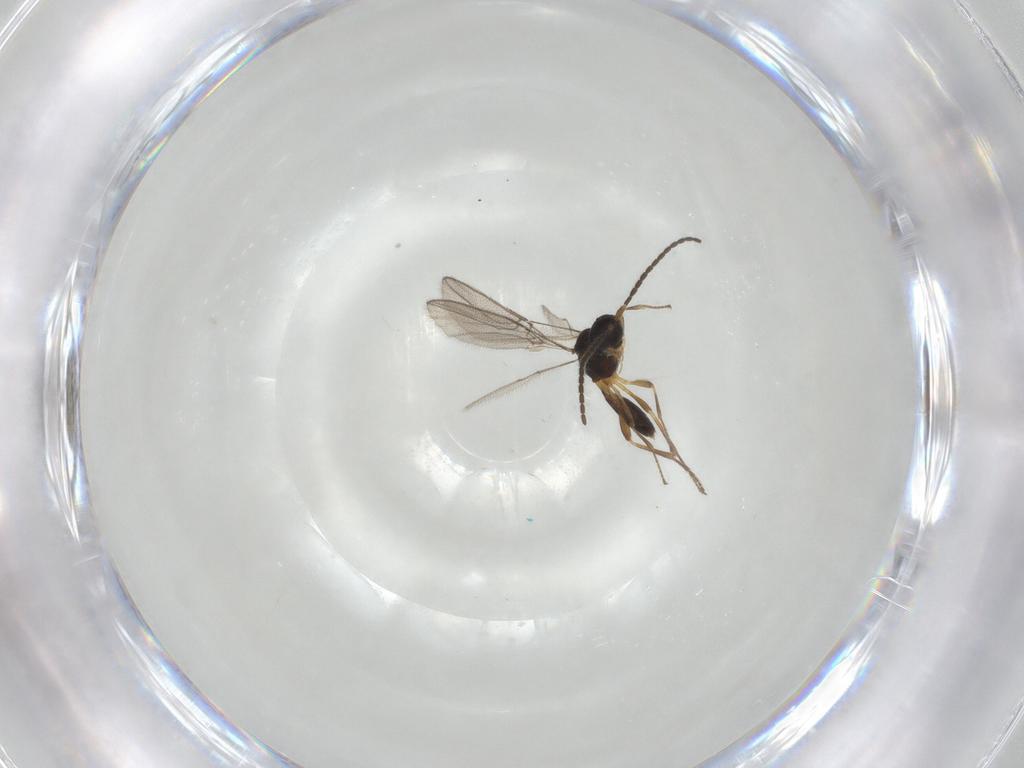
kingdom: Animalia
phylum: Arthropoda
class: Insecta
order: Hymenoptera
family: Braconidae
